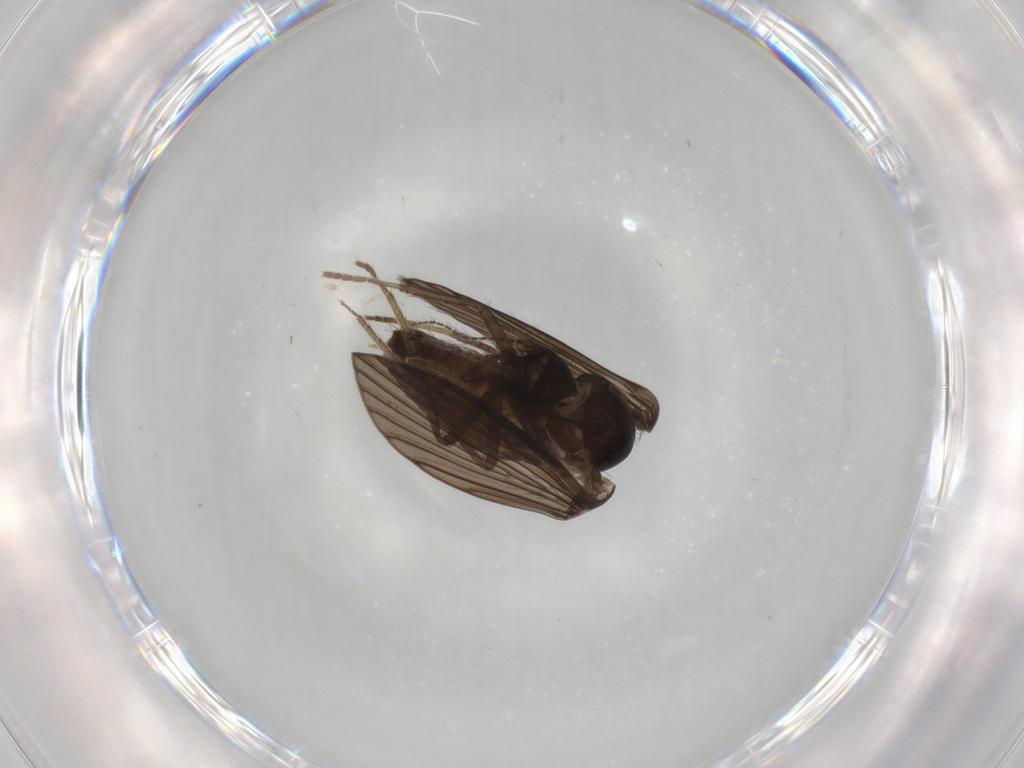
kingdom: Animalia
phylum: Arthropoda
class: Insecta
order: Diptera
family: Psychodidae
